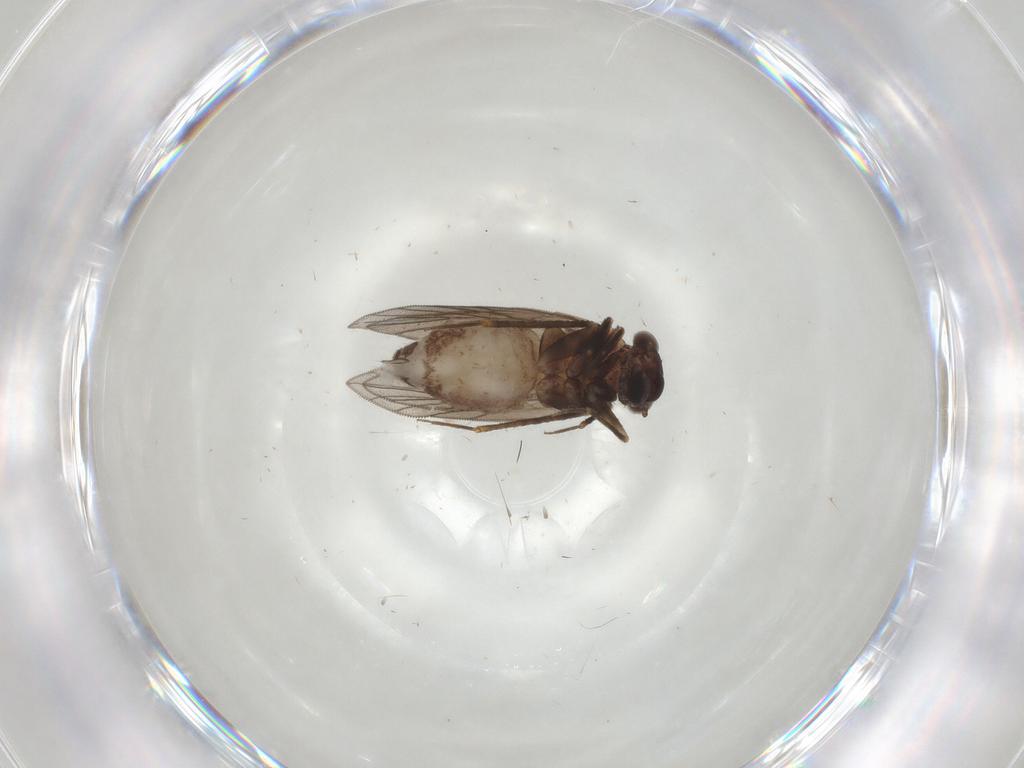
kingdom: Animalia
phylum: Arthropoda
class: Insecta
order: Psocodea
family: Lepidopsocidae
